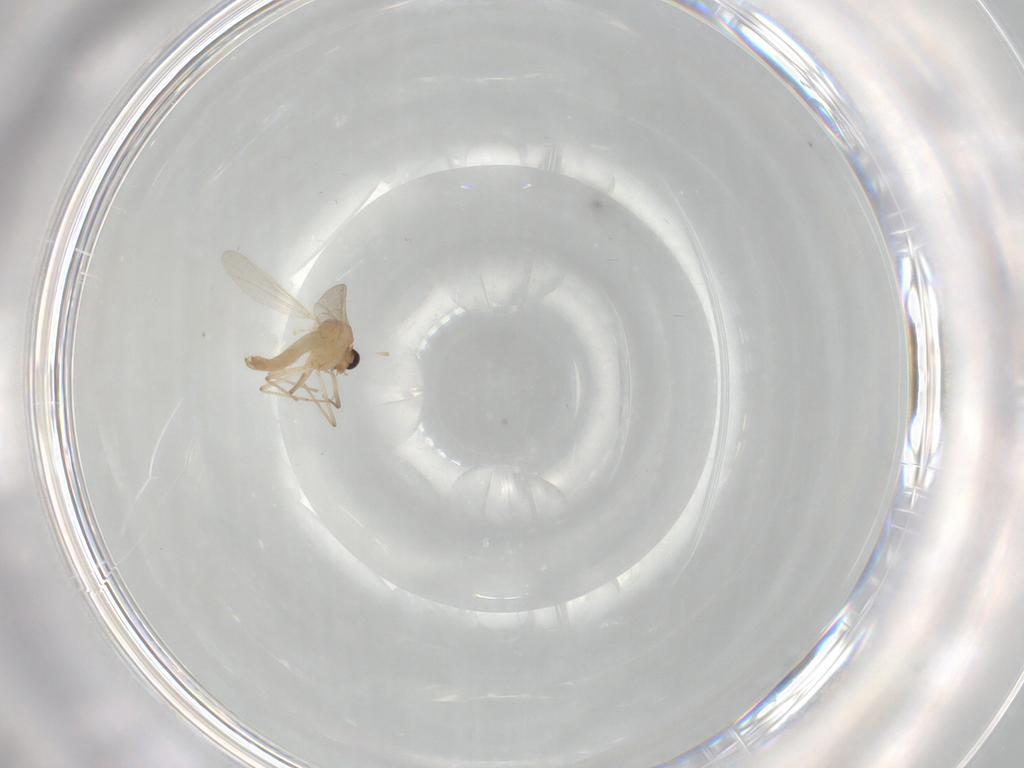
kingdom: Animalia
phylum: Arthropoda
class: Insecta
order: Diptera
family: Chironomidae
